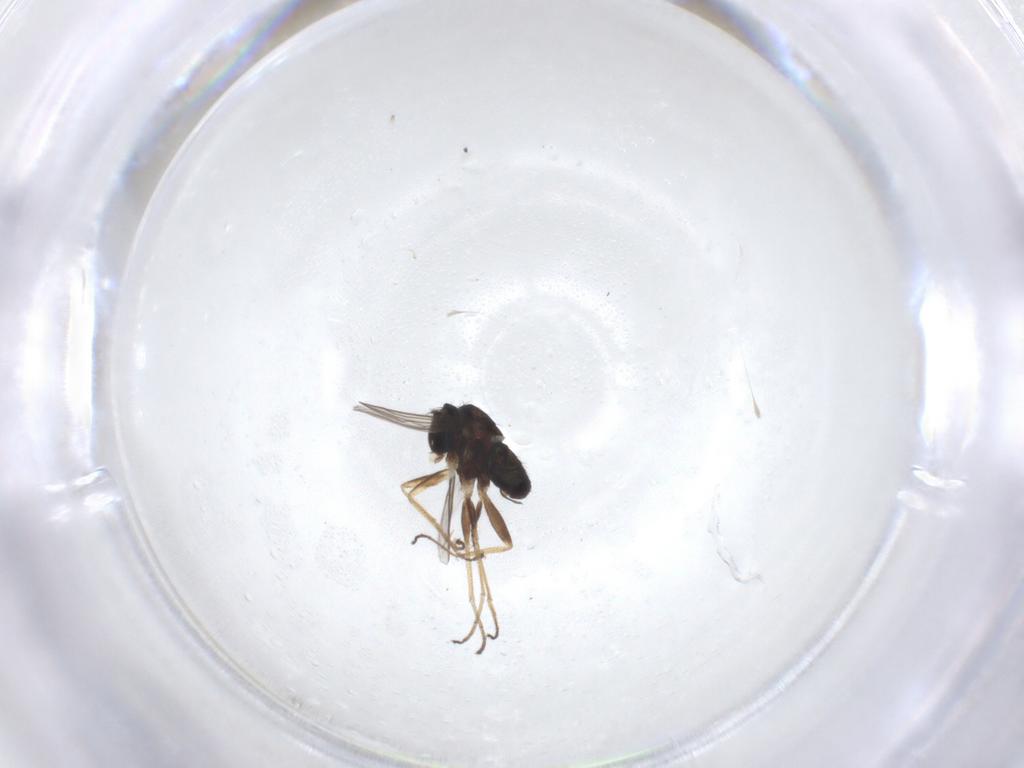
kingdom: Animalia
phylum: Arthropoda
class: Insecta
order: Diptera
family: Dolichopodidae
